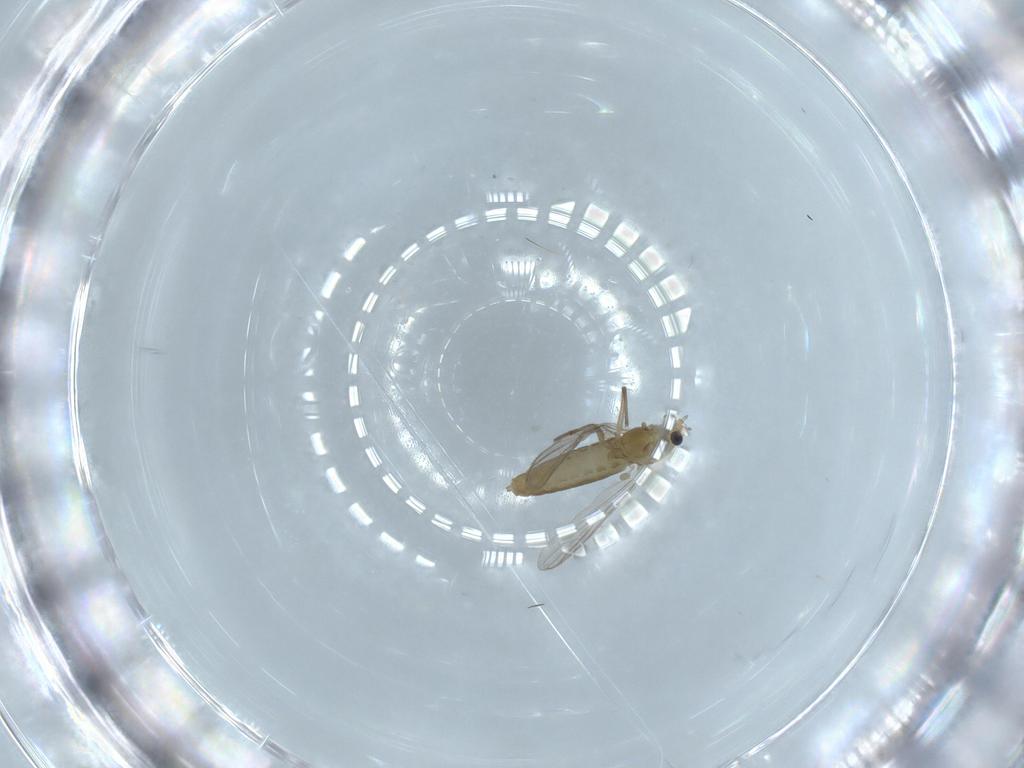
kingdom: Animalia
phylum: Arthropoda
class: Insecta
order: Diptera
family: Chironomidae
